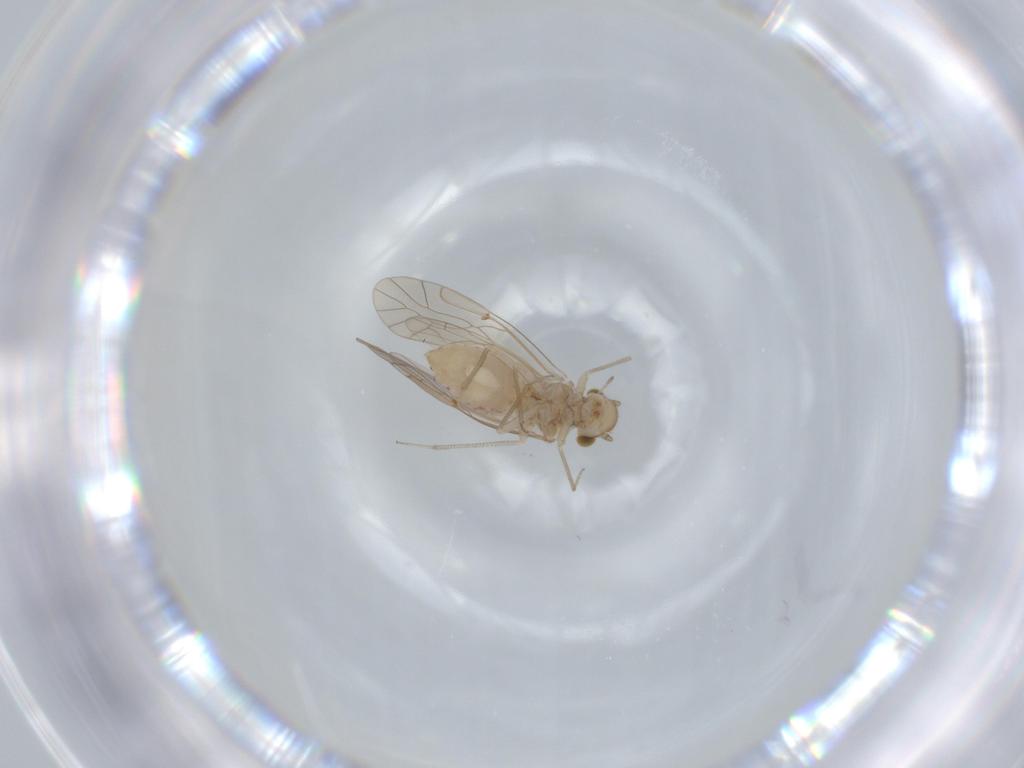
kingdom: Animalia
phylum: Arthropoda
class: Insecta
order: Psocodea
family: Lachesillidae
